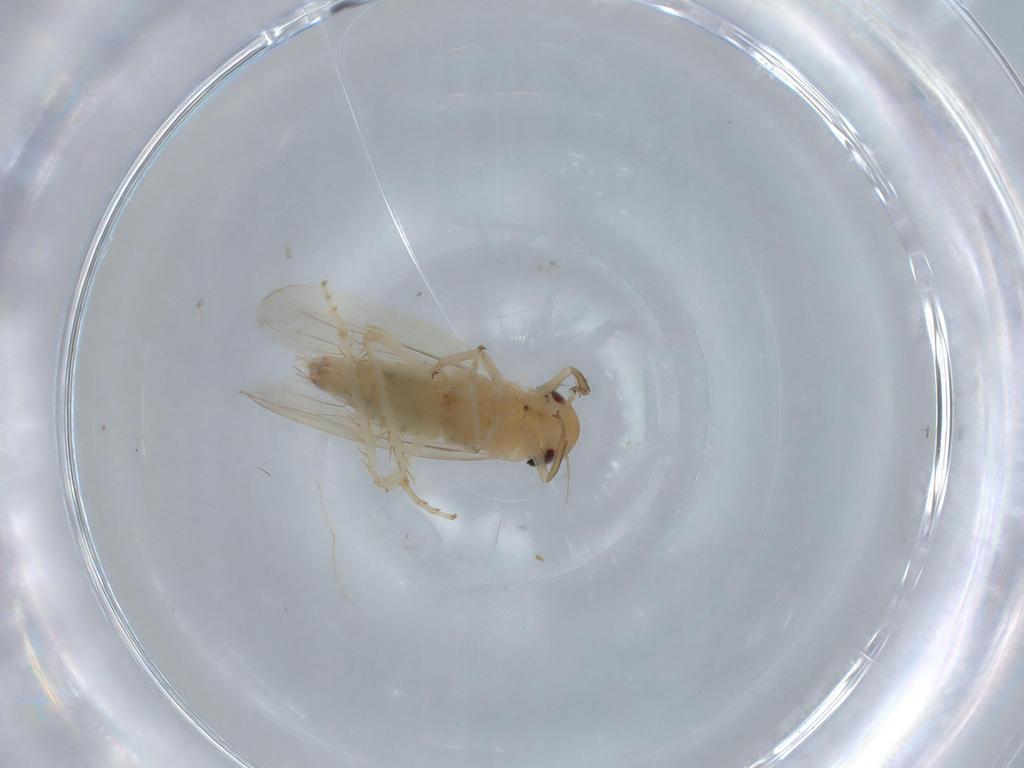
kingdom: Animalia
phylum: Arthropoda
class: Insecta
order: Hemiptera
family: Cicadellidae
